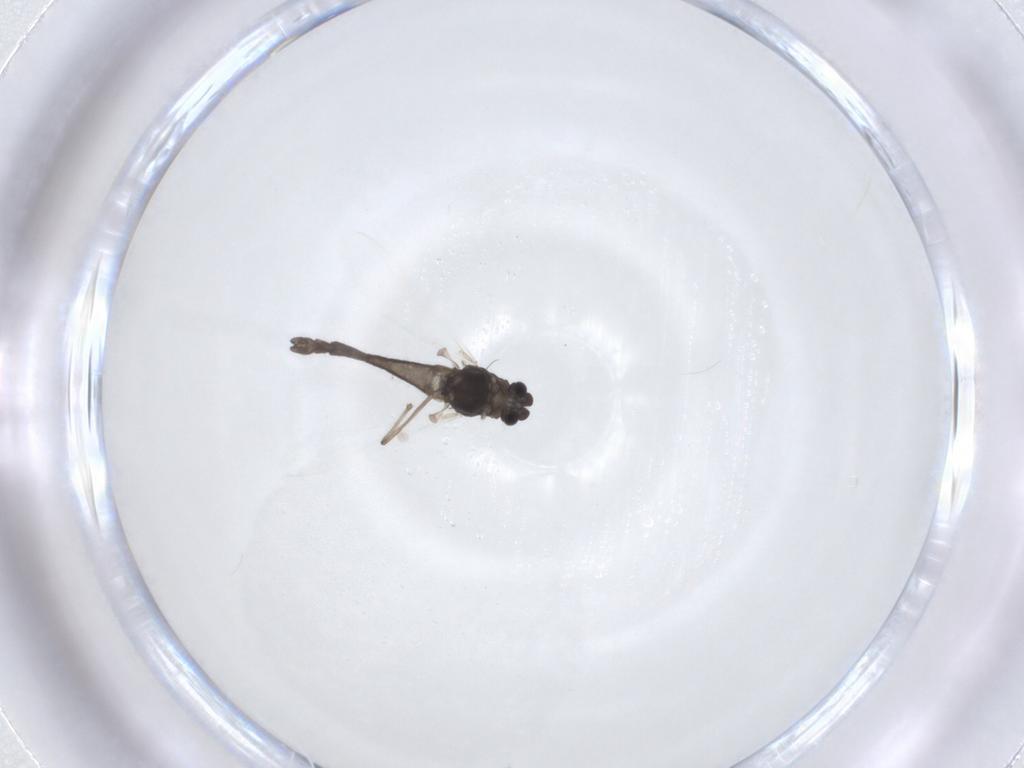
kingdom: Animalia
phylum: Arthropoda
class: Insecta
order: Diptera
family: Chironomidae
